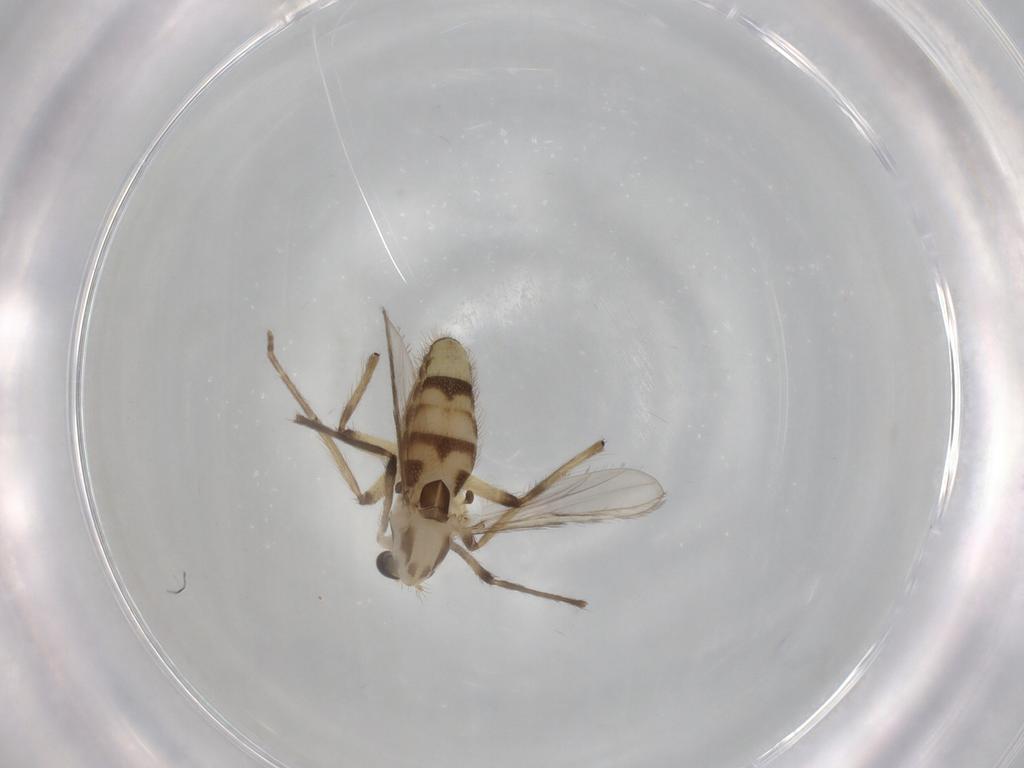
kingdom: Animalia
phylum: Arthropoda
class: Insecta
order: Diptera
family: Chironomidae
